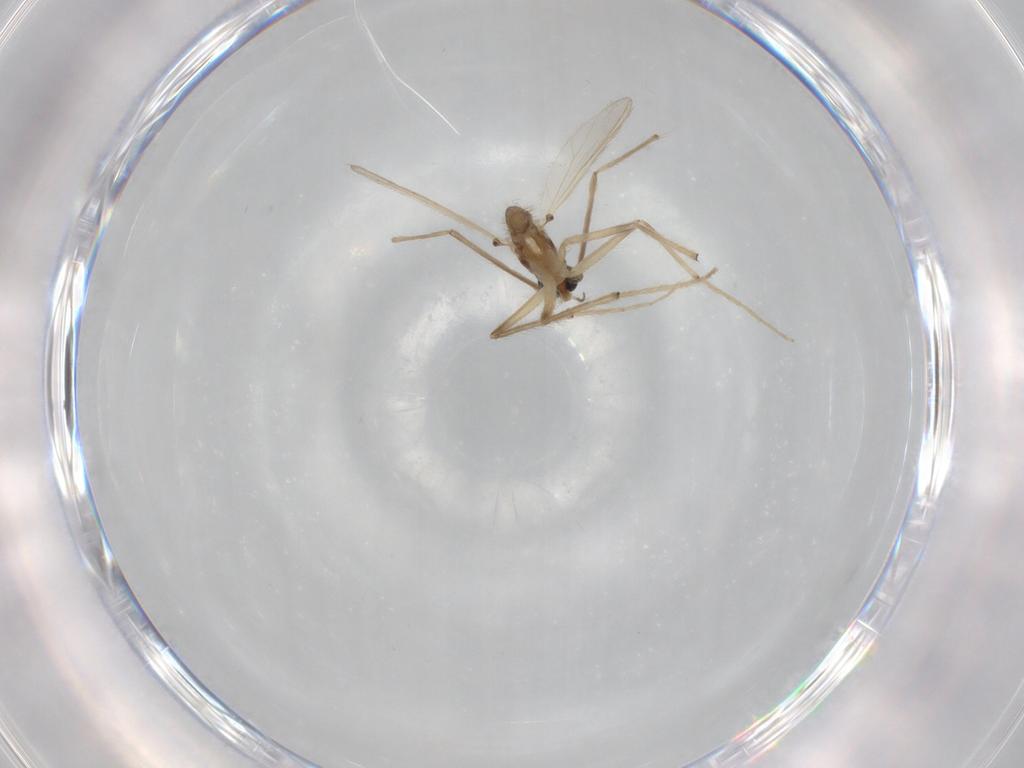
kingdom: Animalia
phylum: Arthropoda
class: Insecta
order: Diptera
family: Chironomidae
